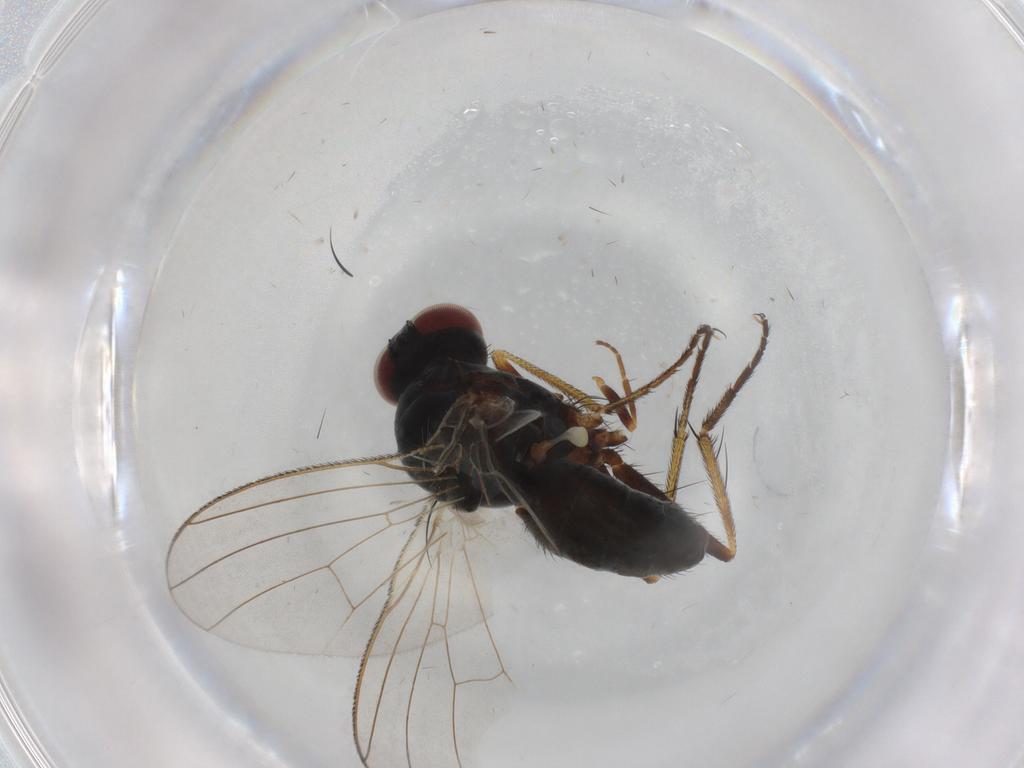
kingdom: Animalia
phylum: Arthropoda
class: Insecta
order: Diptera
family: Chloropidae
